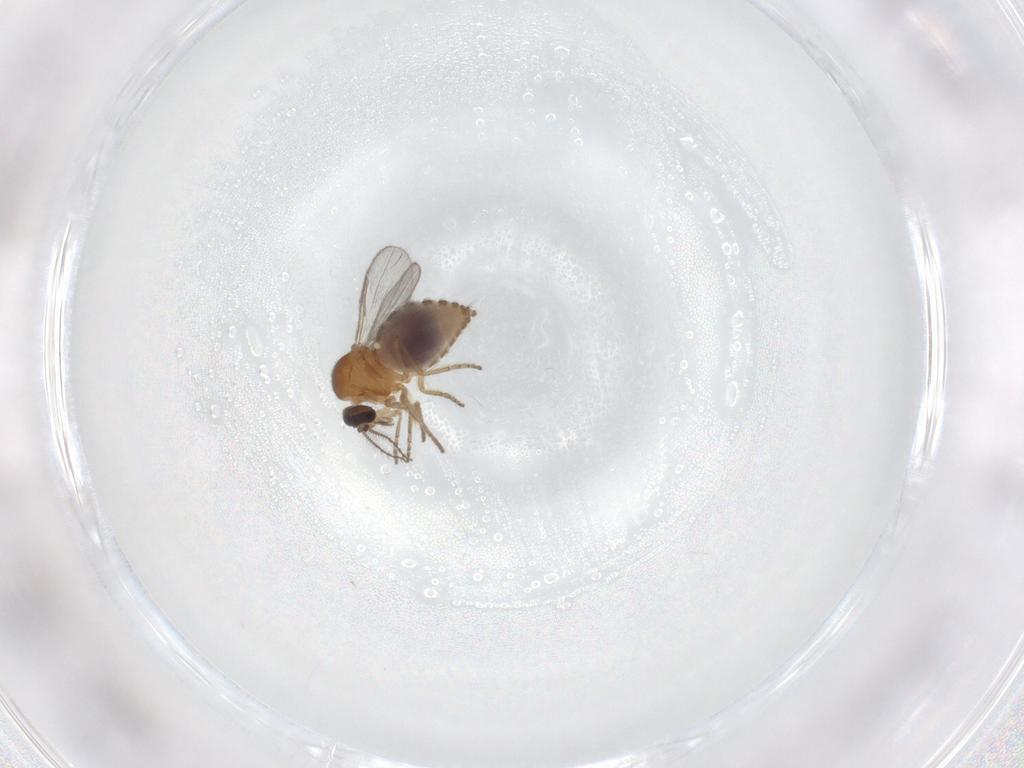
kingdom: Animalia
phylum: Arthropoda
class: Insecta
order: Diptera
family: Ceratopogonidae
